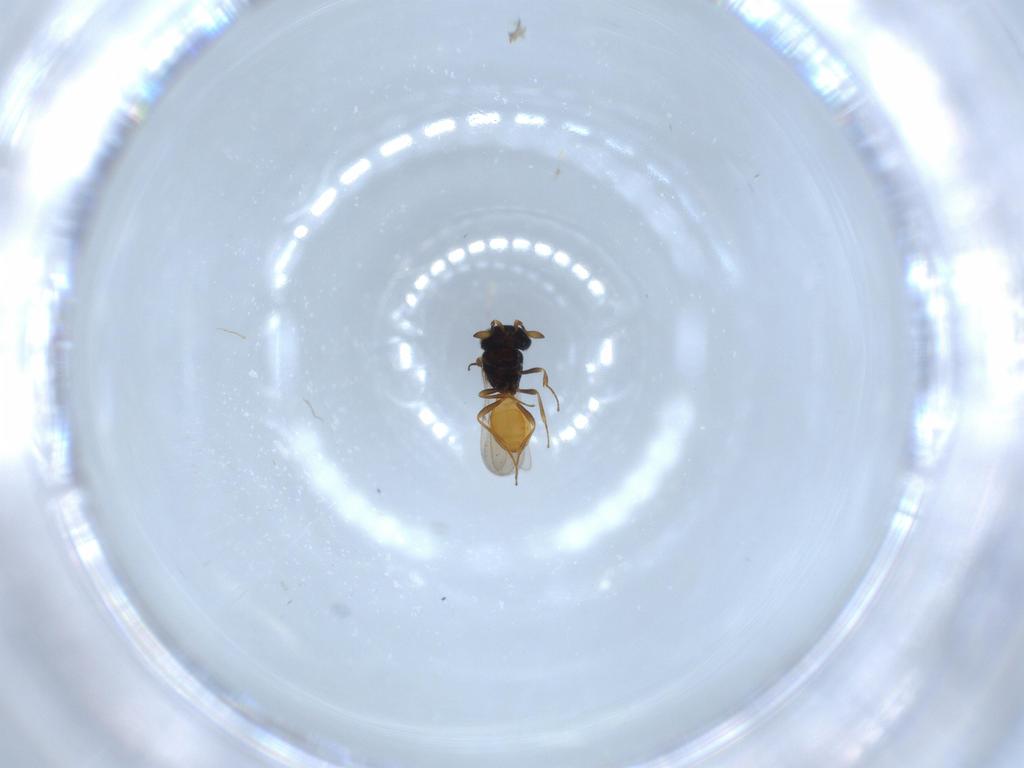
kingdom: Animalia
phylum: Arthropoda
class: Insecta
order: Hymenoptera
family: Scelionidae
